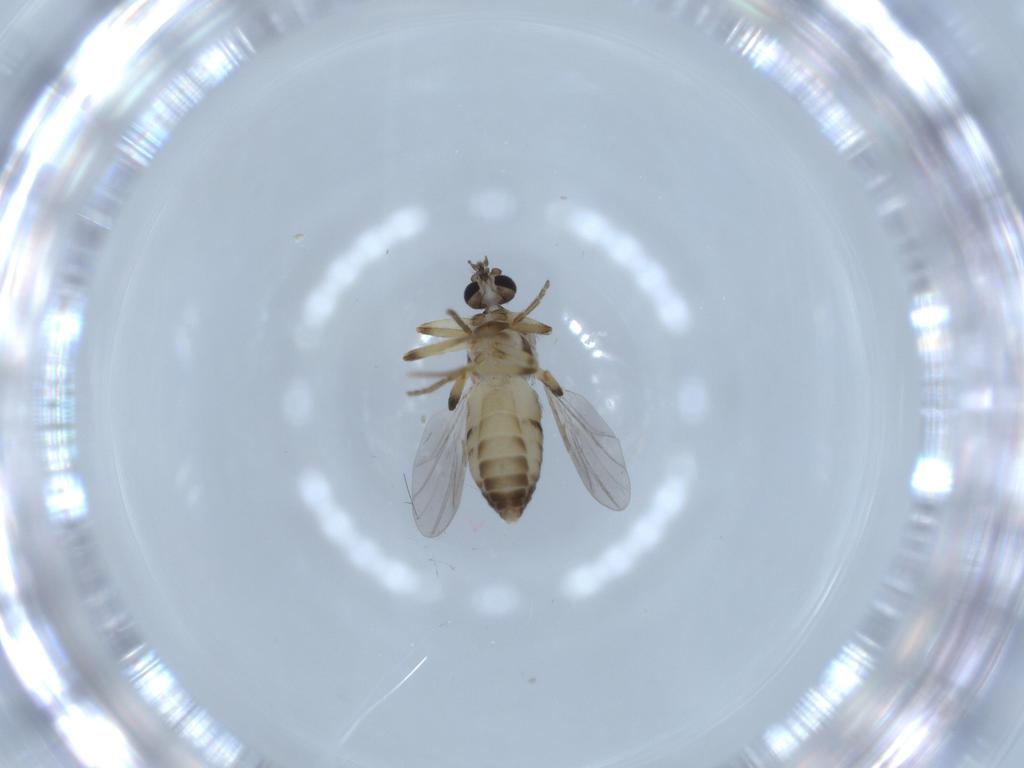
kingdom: Animalia
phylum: Arthropoda
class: Insecta
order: Diptera
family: Ceratopogonidae
